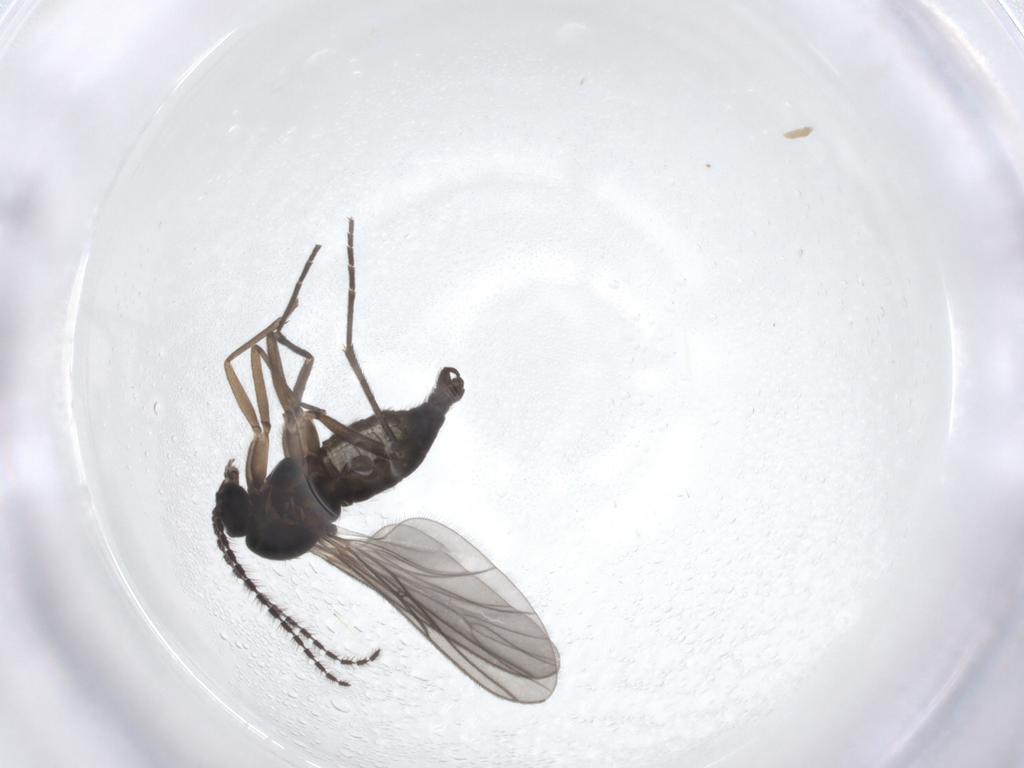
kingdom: Animalia
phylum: Arthropoda
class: Insecta
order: Diptera
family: Sciaridae
